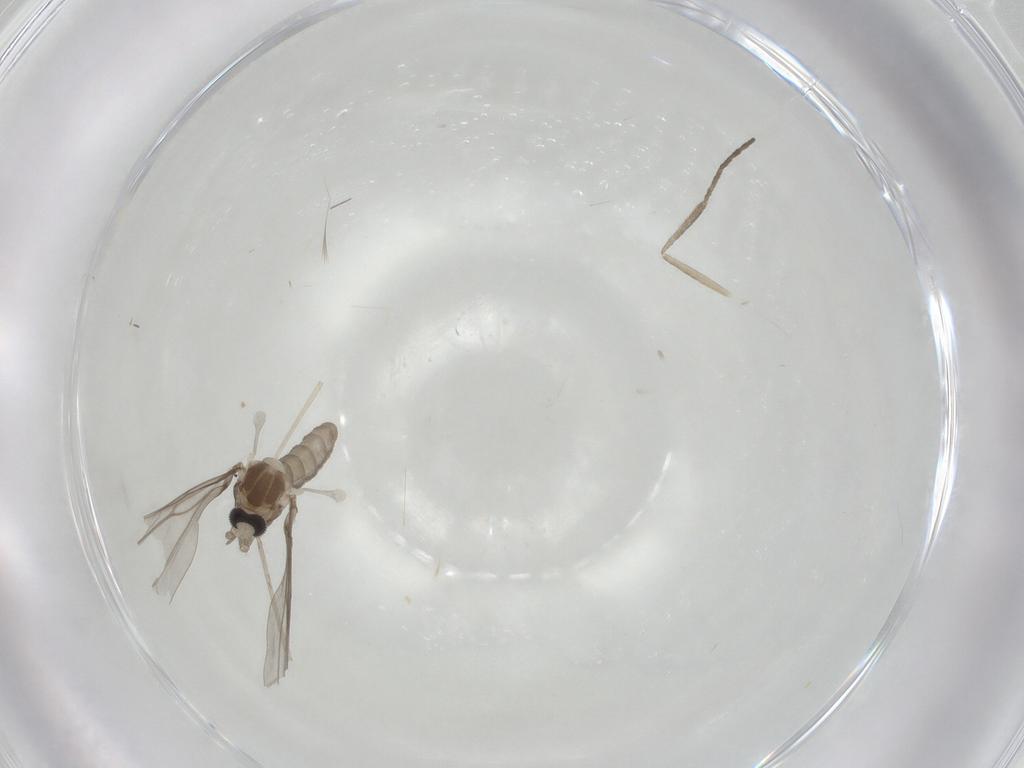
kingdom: Animalia
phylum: Arthropoda
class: Insecta
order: Diptera
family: Cecidomyiidae
